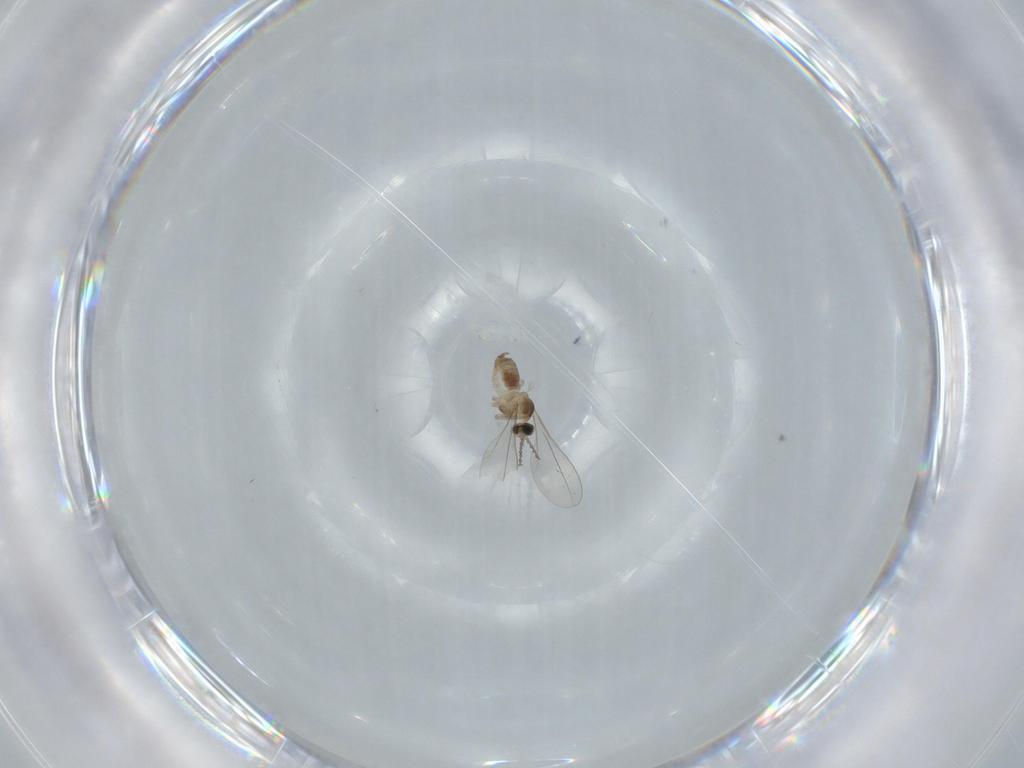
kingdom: Animalia
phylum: Arthropoda
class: Insecta
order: Diptera
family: Cecidomyiidae
